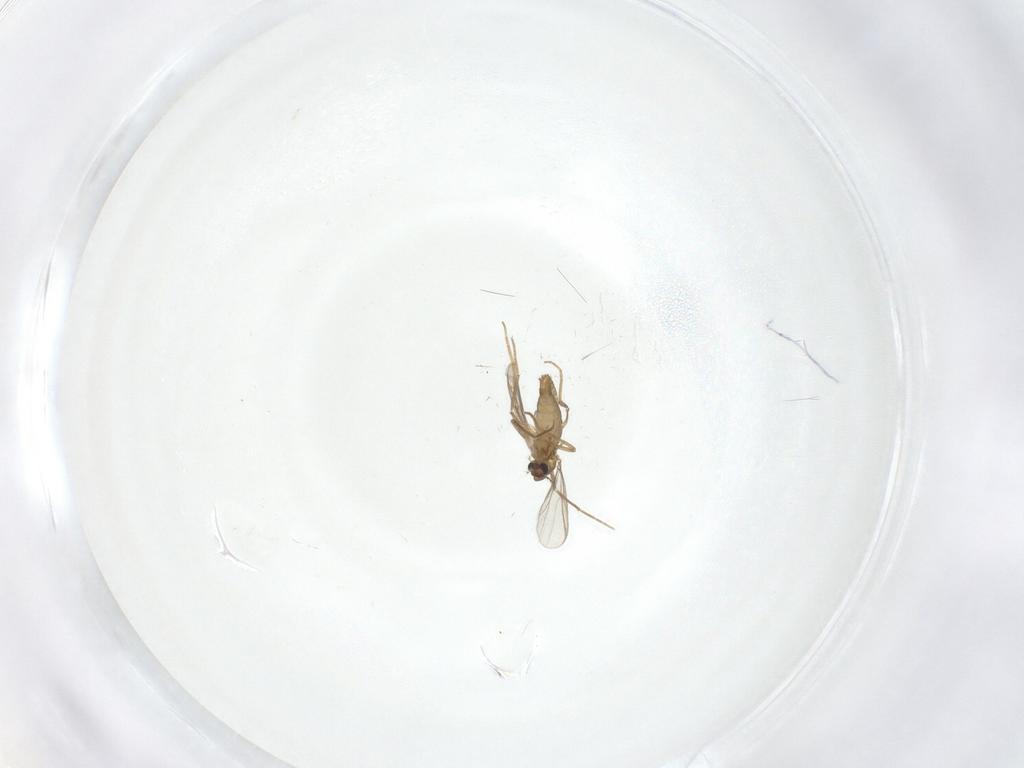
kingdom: Animalia
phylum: Arthropoda
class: Insecta
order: Diptera
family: Chironomidae
